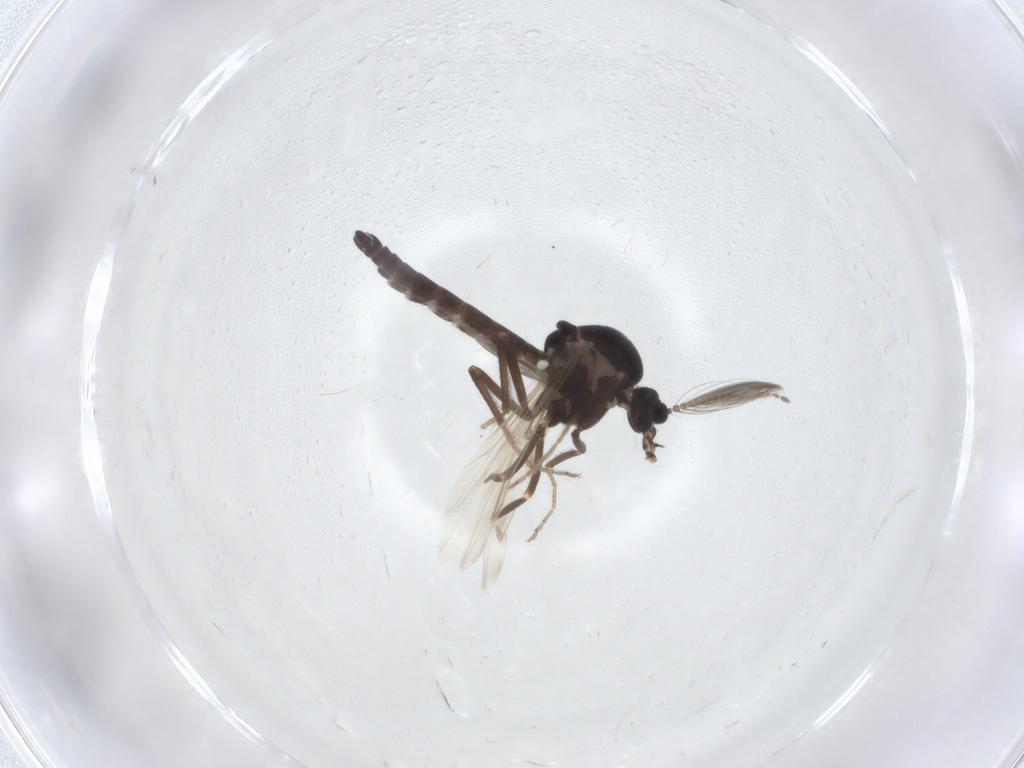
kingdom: Animalia
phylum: Arthropoda
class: Insecta
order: Diptera
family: Ceratopogonidae
